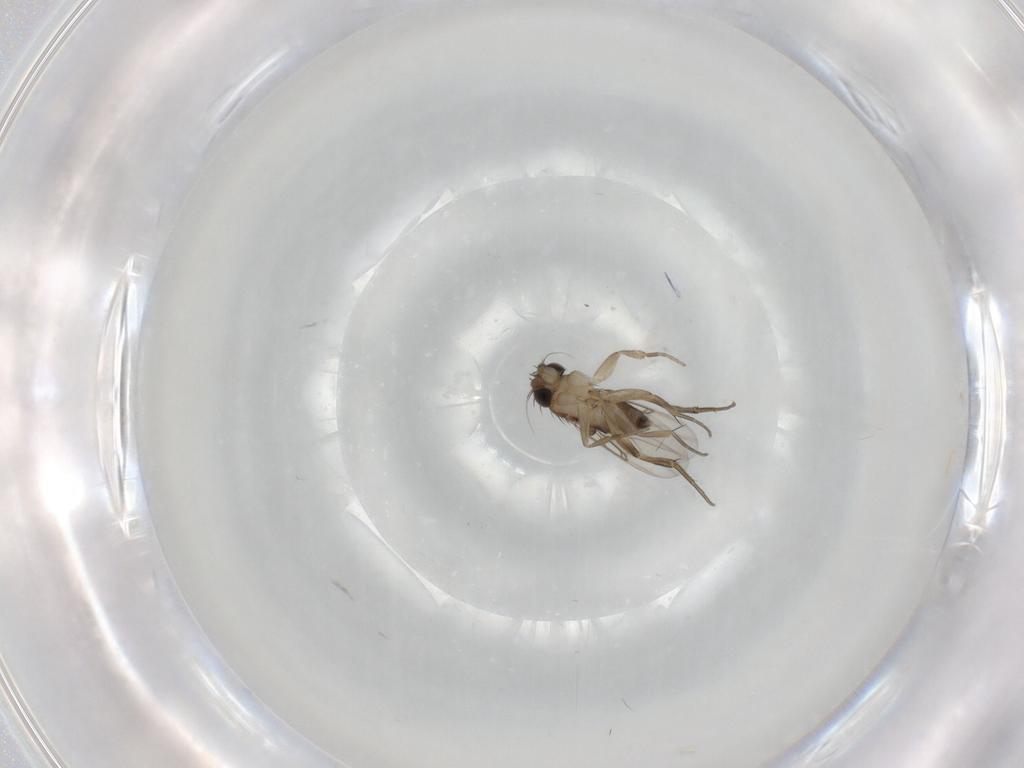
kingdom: Animalia
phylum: Arthropoda
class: Insecta
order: Diptera
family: Phoridae
